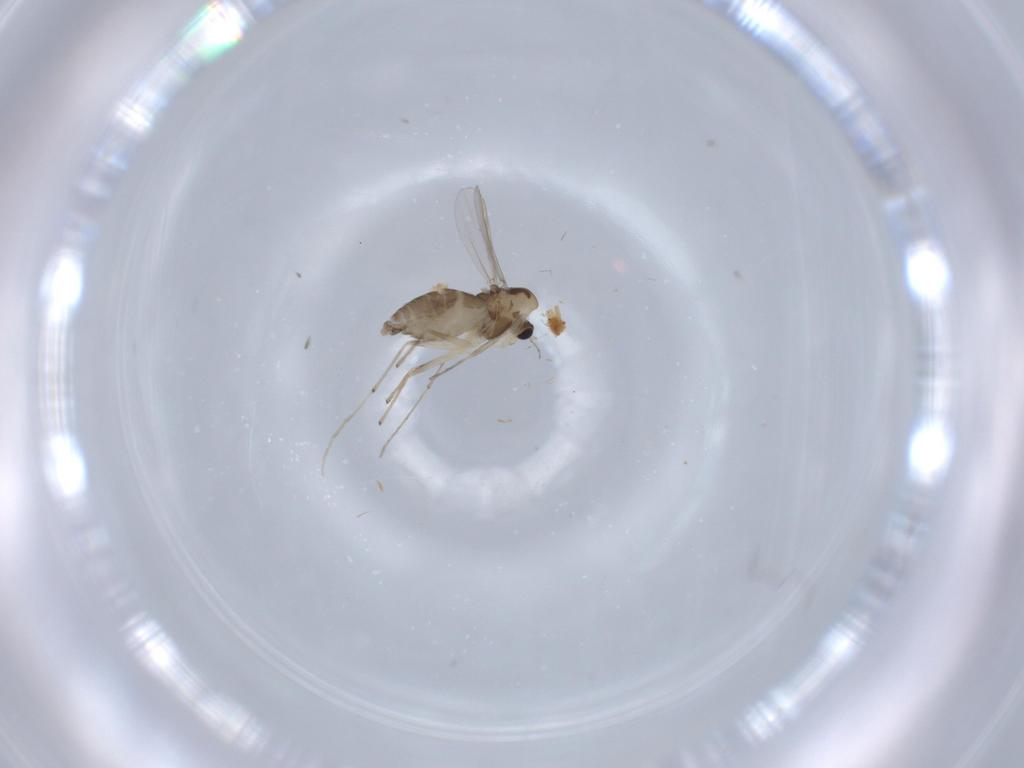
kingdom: Animalia
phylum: Arthropoda
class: Insecta
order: Diptera
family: Chironomidae
